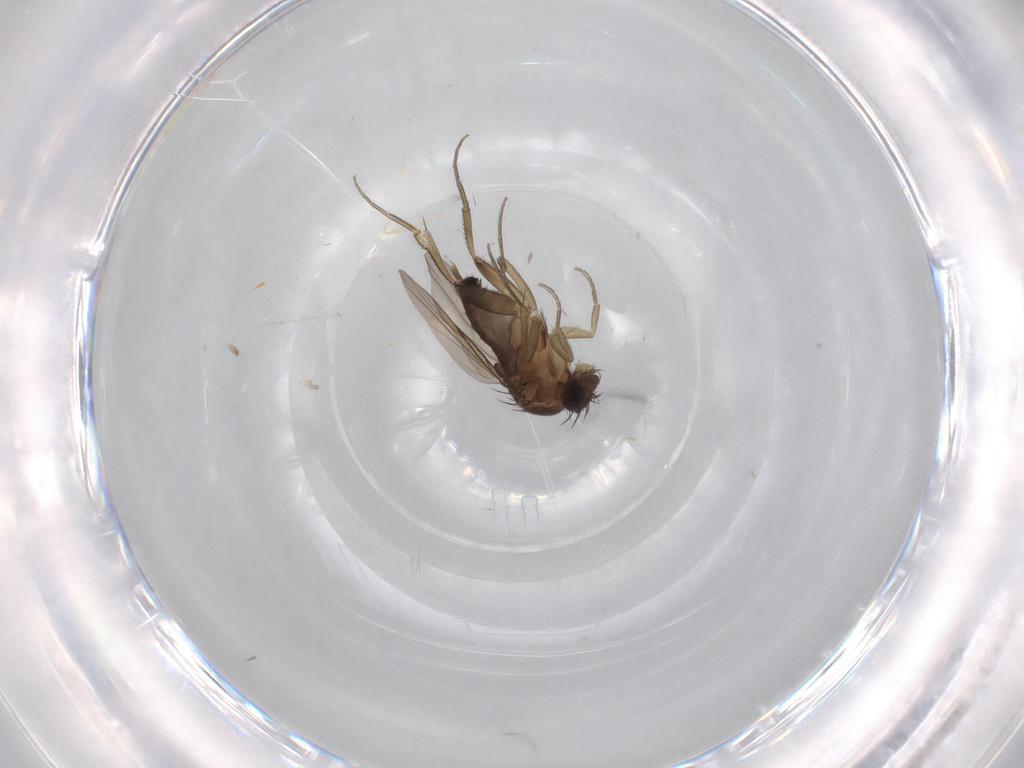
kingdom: Animalia
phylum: Arthropoda
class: Insecta
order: Diptera
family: Phoridae
